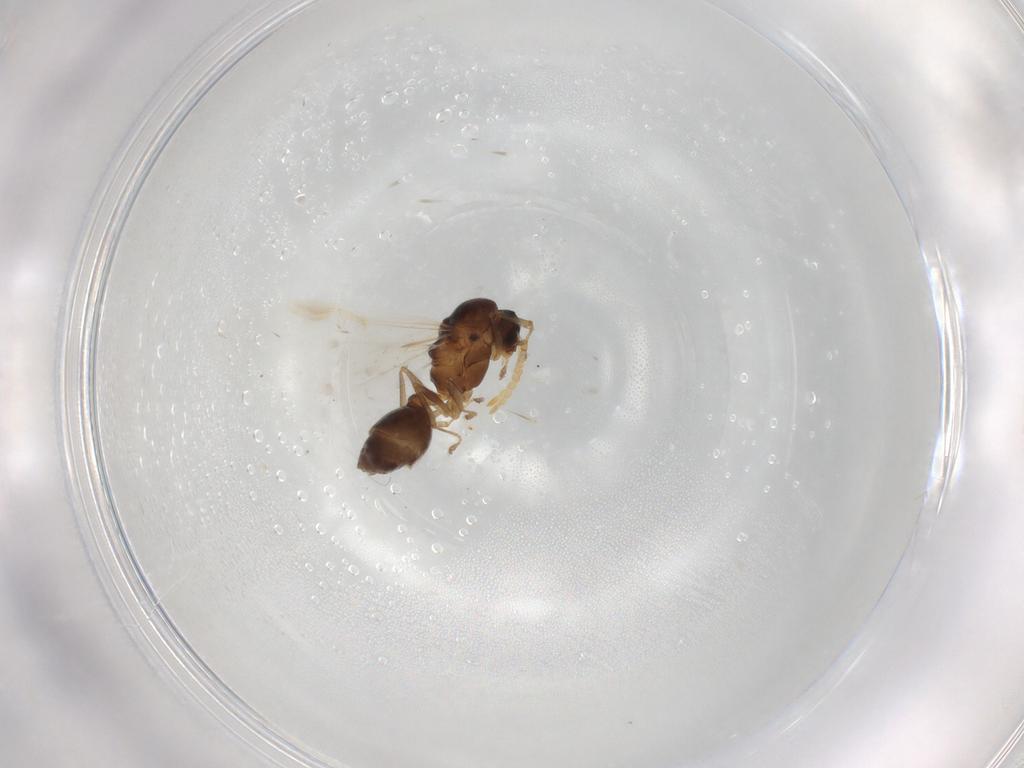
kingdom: Animalia
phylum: Arthropoda
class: Insecta
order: Hymenoptera
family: Formicidae
